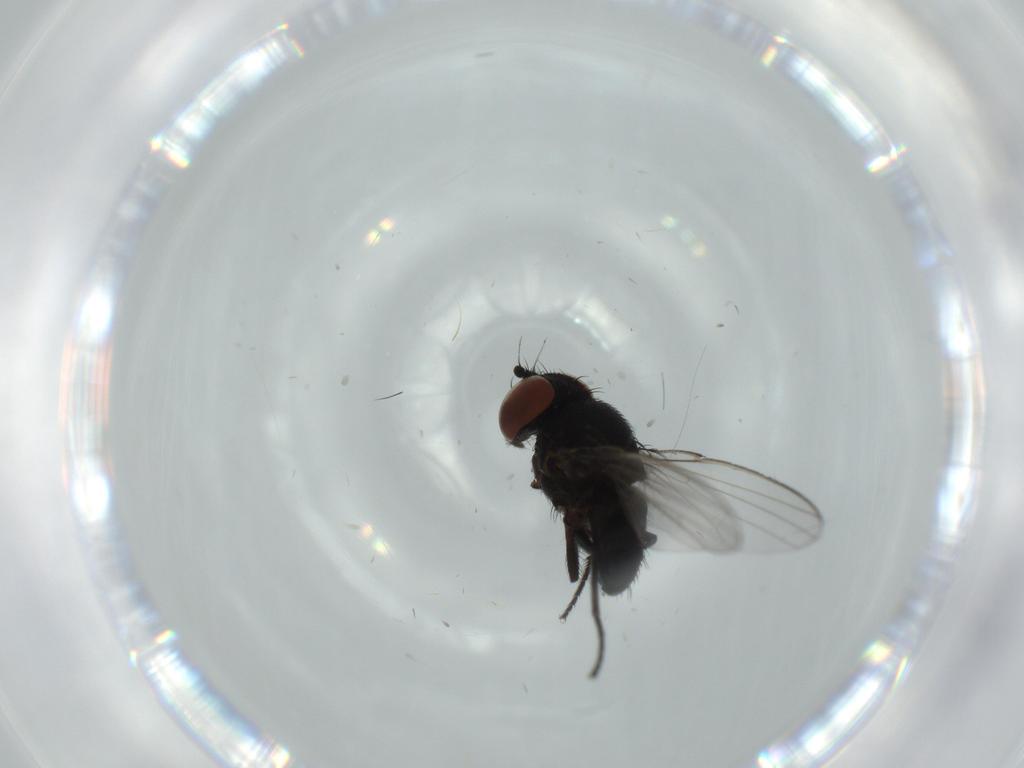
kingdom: Animalia
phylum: Arthropoda
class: Insecta
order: Diptera
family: Milichiidae
